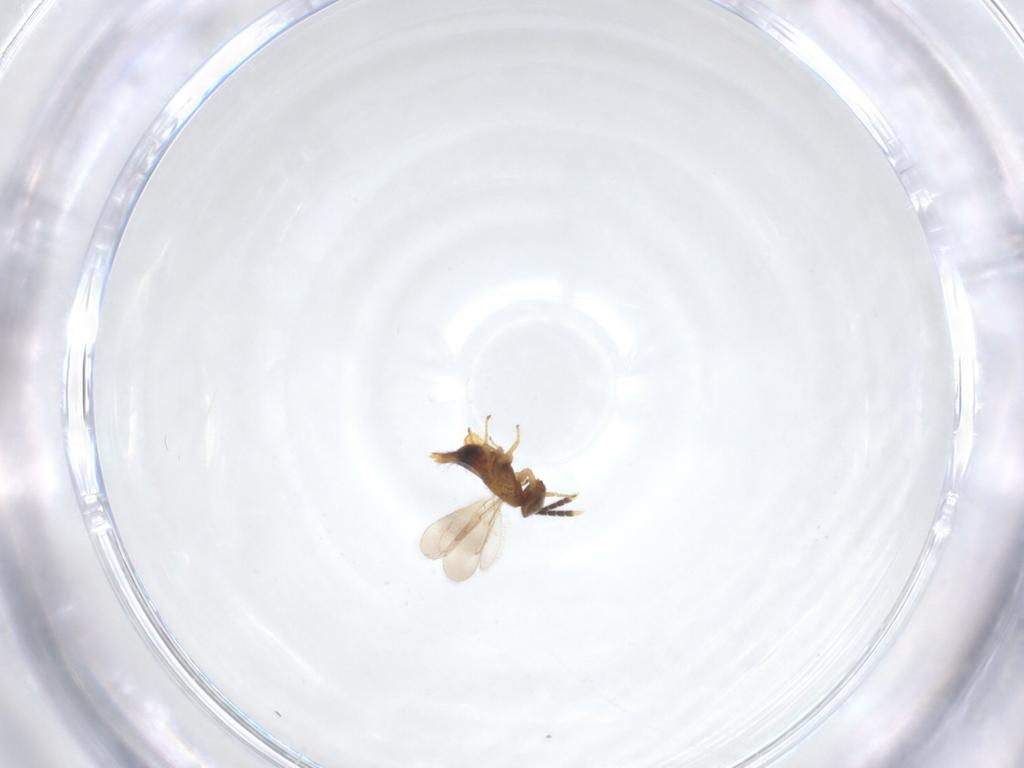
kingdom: Animalia
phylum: Arthropoda
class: Insecta
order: Hymenoptera
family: Aphelinidae
